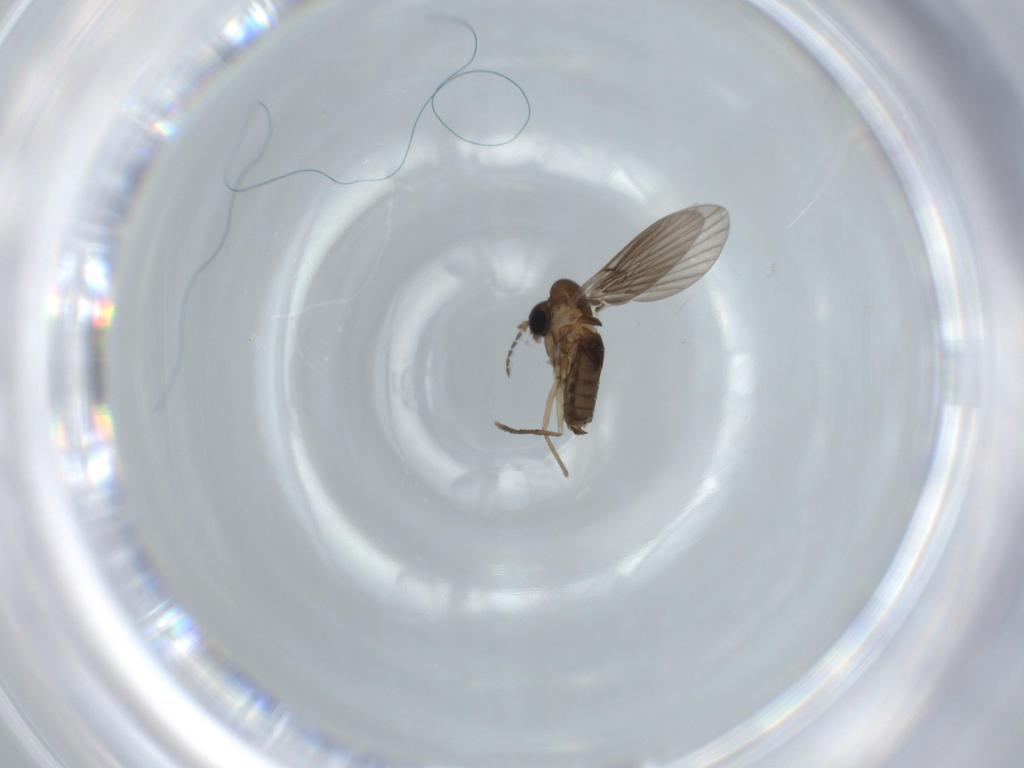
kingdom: Animalia
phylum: Arthropoda
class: Insecta
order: Diptera
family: Psychodidae
